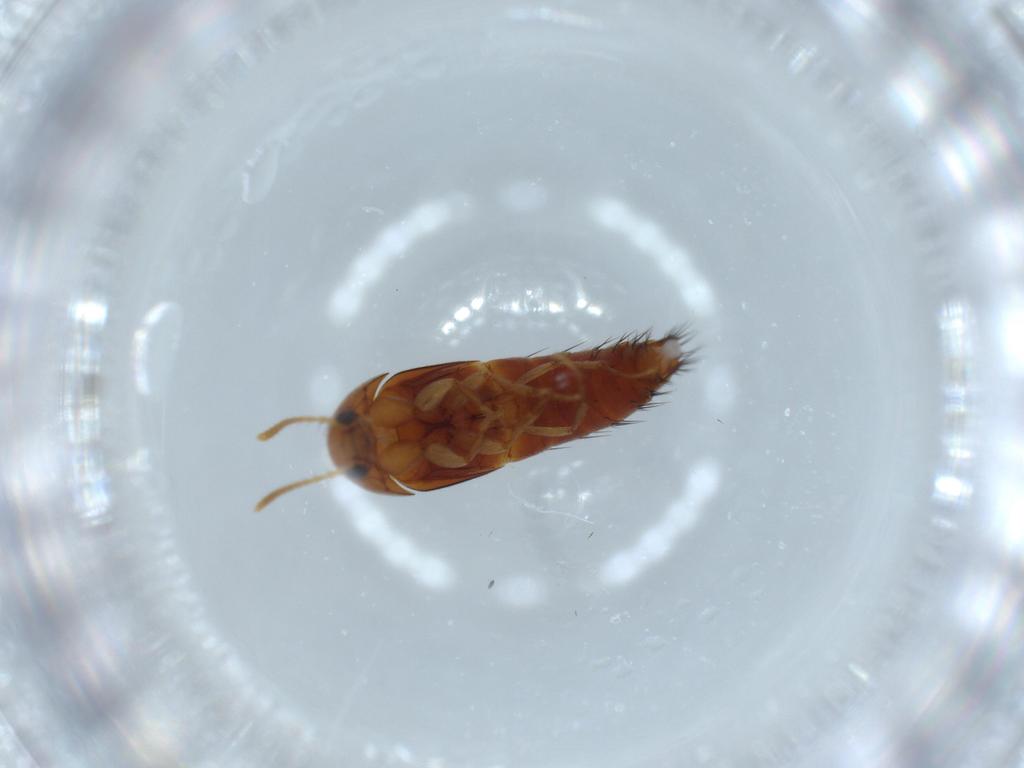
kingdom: Animalia
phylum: Arthropoda
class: Insecta
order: Coleoptera
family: Staphylinidae
